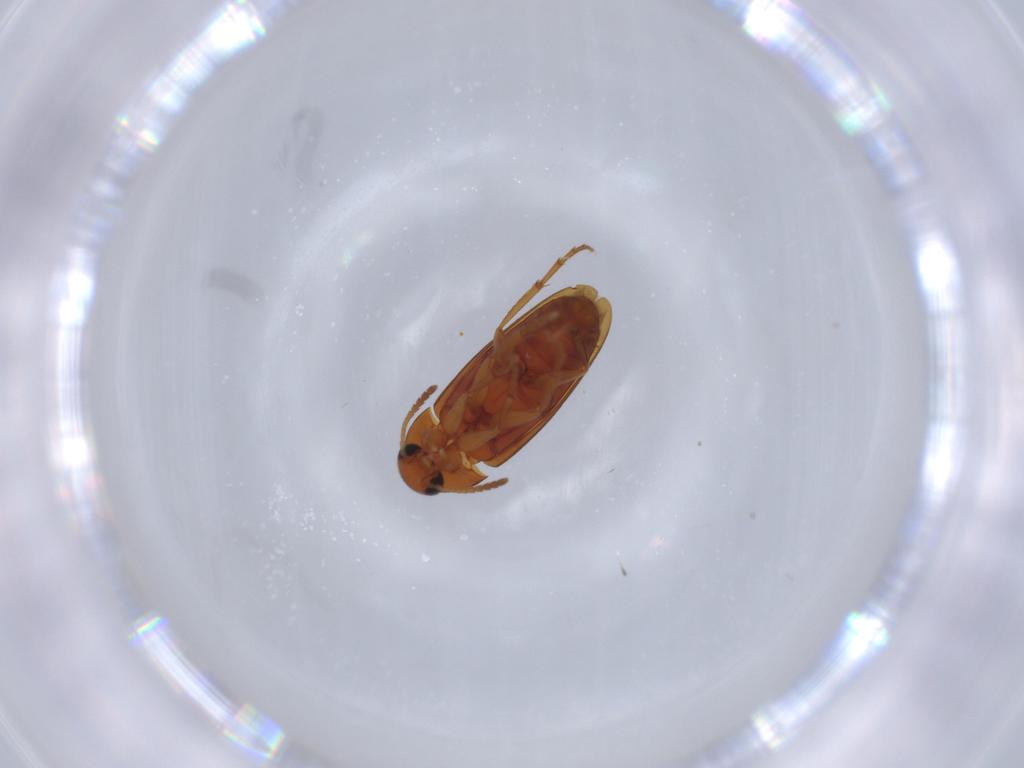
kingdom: Animalia
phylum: Arthropoda
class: Insecta
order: Coleoptera
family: Scraptiidae
